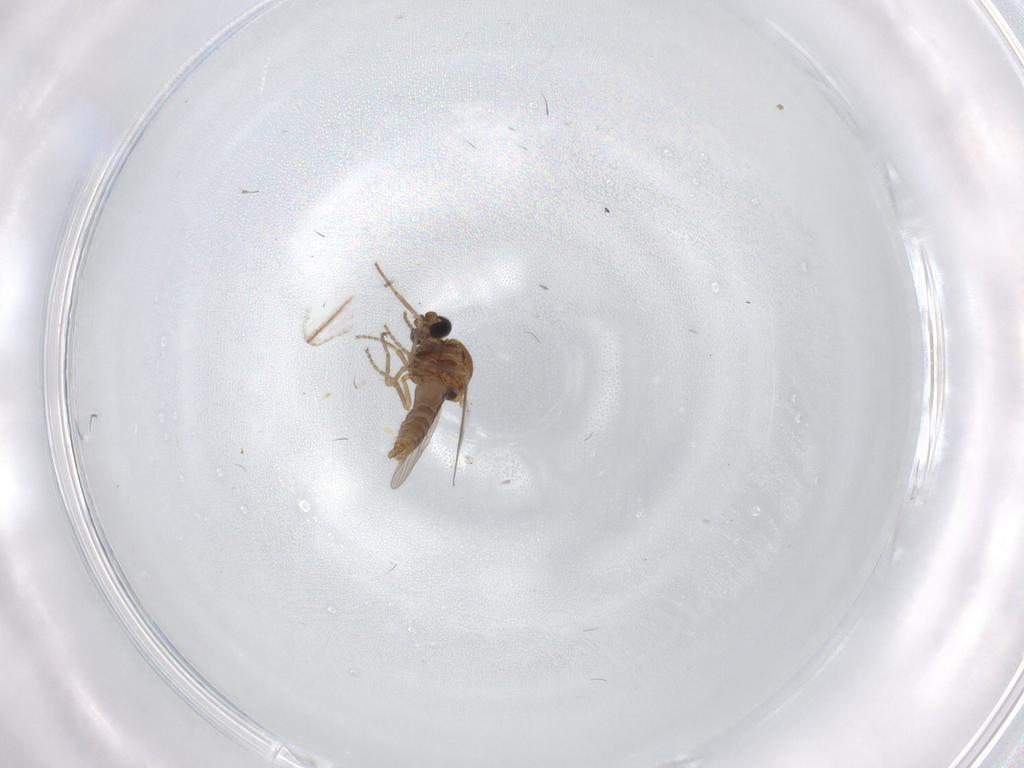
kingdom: Animalia
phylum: Arthropoda
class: Insecta
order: Diptera
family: Ceratopogonidae
